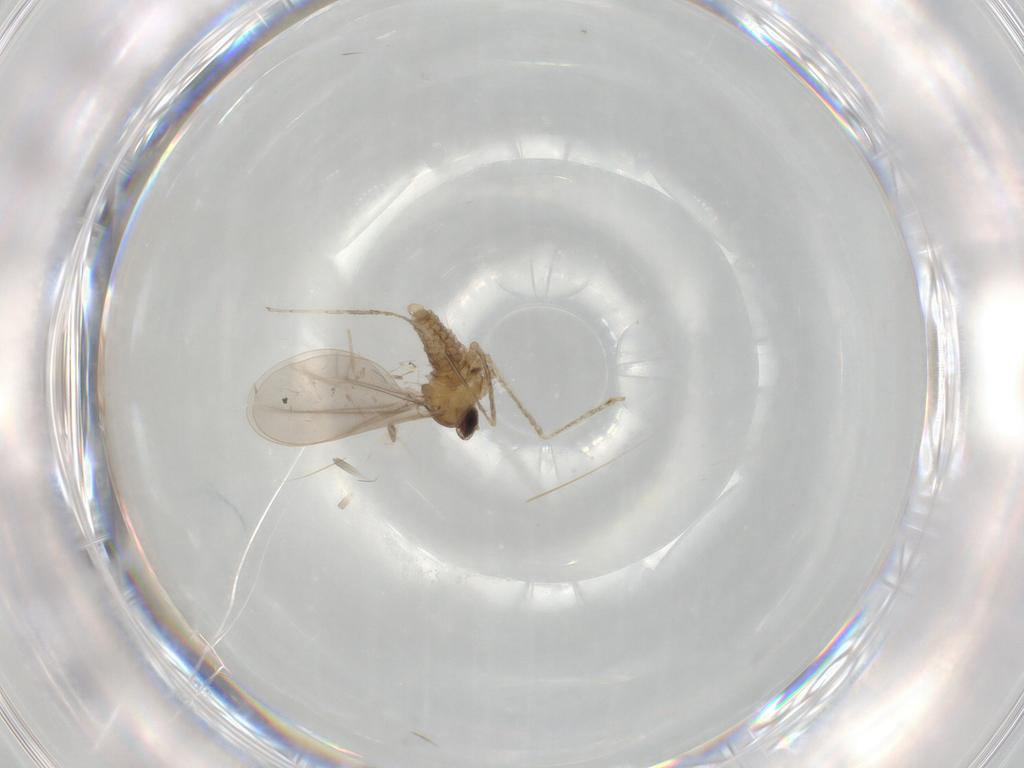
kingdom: Animalia
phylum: Arthropoda
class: Insecta
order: Diptera
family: Cecidomyiidae
